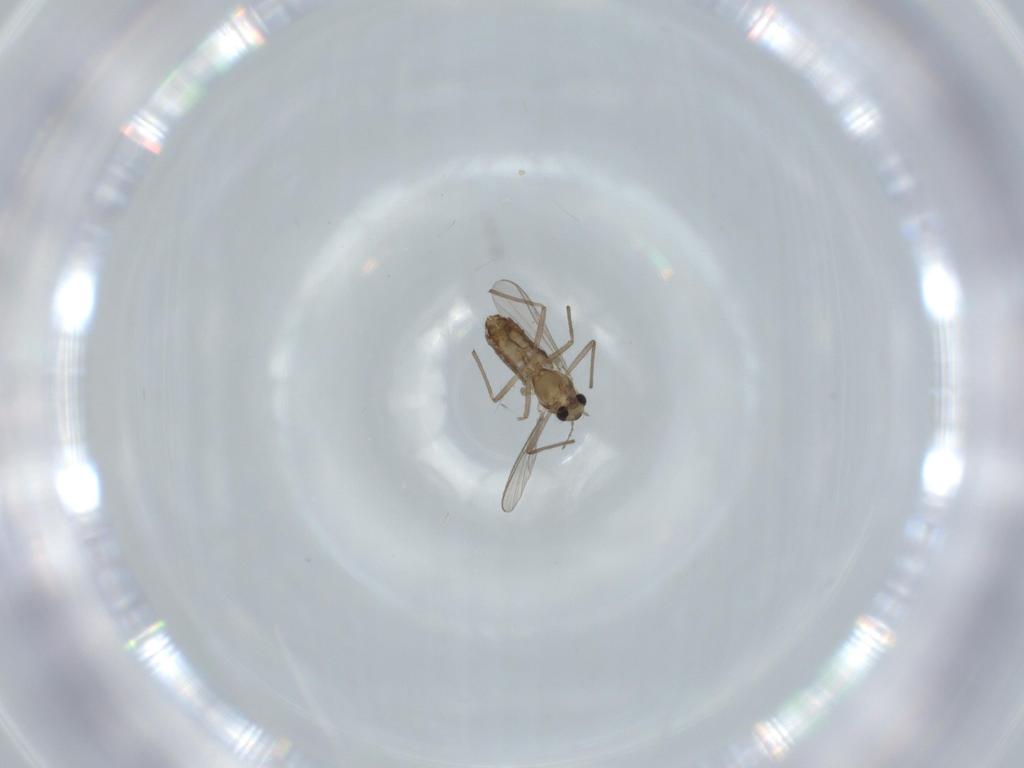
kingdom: Animalia
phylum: Arthropoda
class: Insecta
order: Diptera
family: Chironomidae
